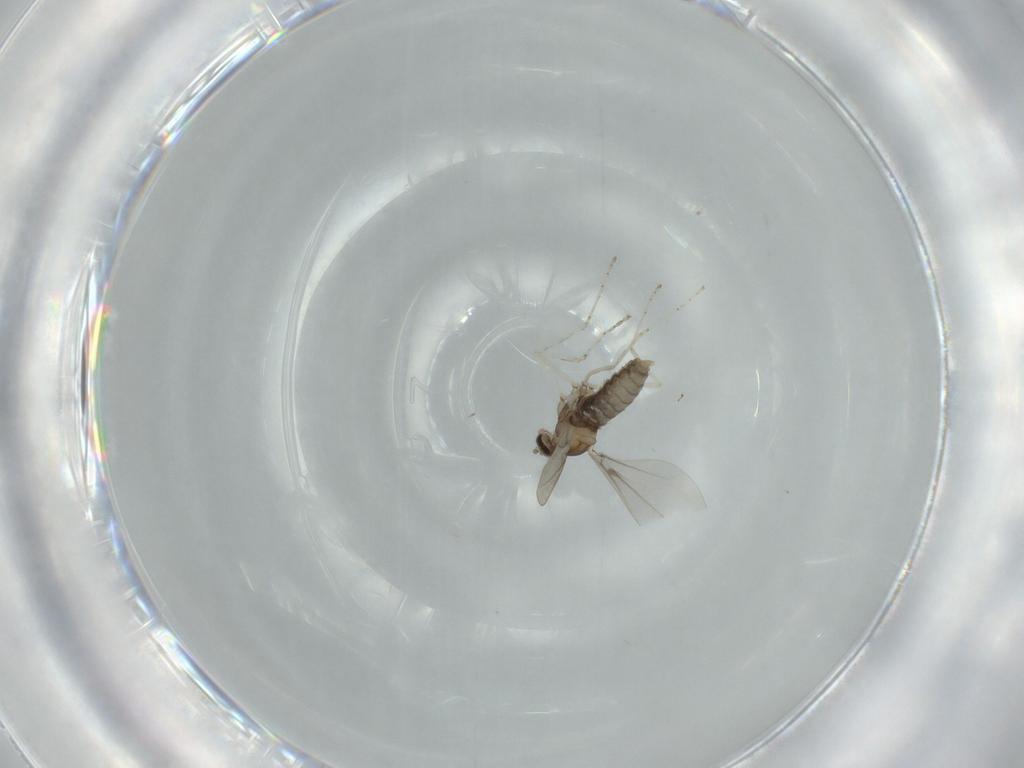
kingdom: Animalia
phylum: Arthropoda
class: Insecta
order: Diptera
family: Cecidomyiidae
